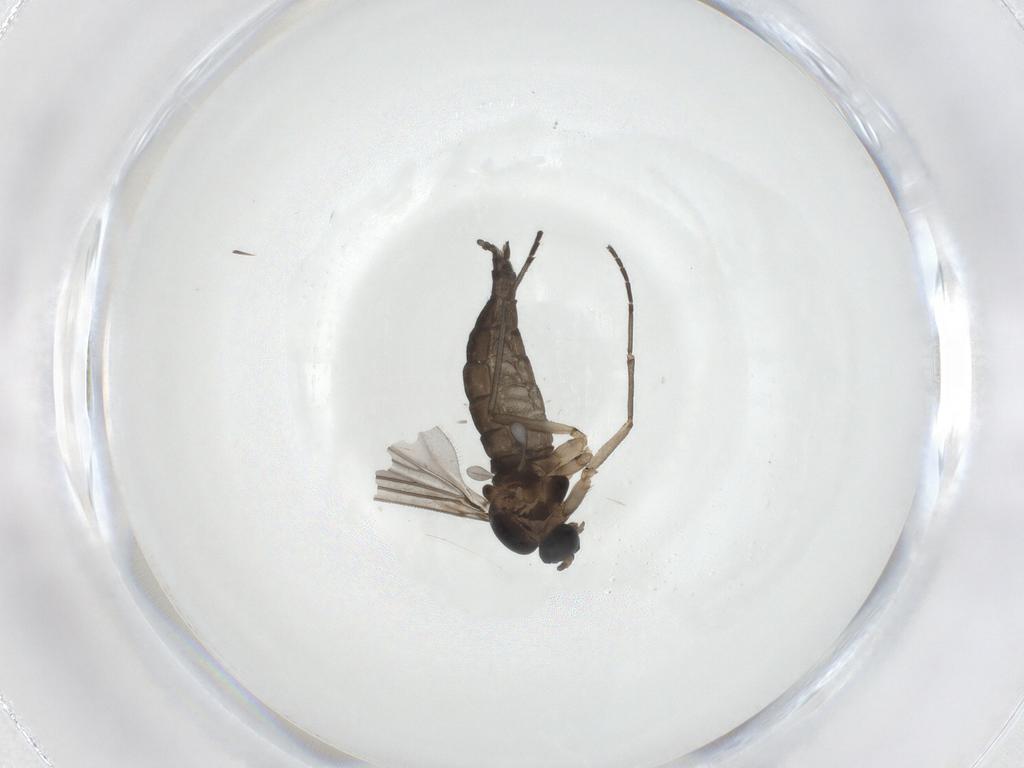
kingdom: Animalia
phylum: Arthropoda
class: Insecta
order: Diptera
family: Sciaridae
